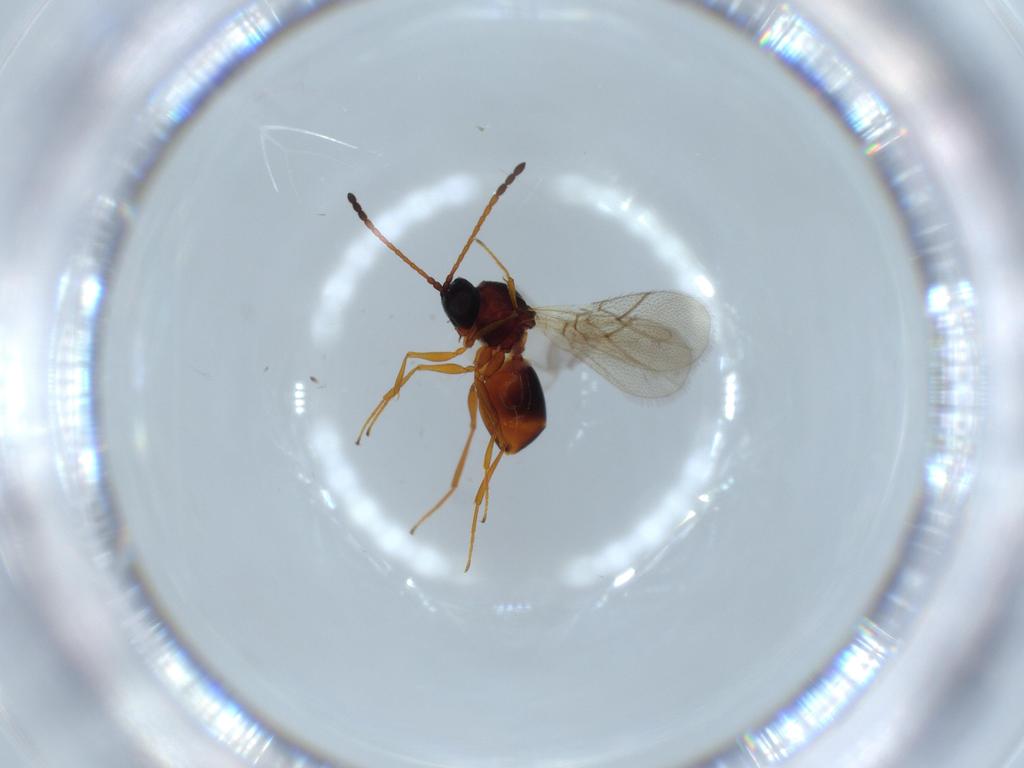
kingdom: Animalia
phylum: Arthropoda
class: Insecta
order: Hymenoptera
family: Figitidae
